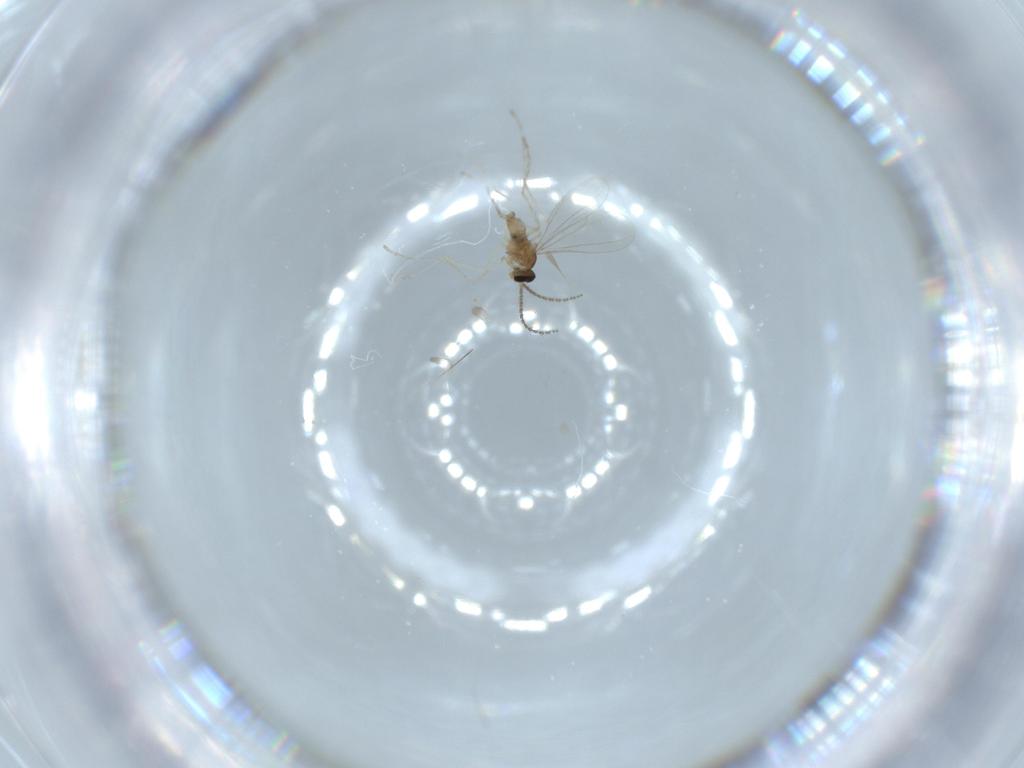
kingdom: Animalia
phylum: Arthropoda
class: Insecta
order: Diptera
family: Cecidomyiidae
